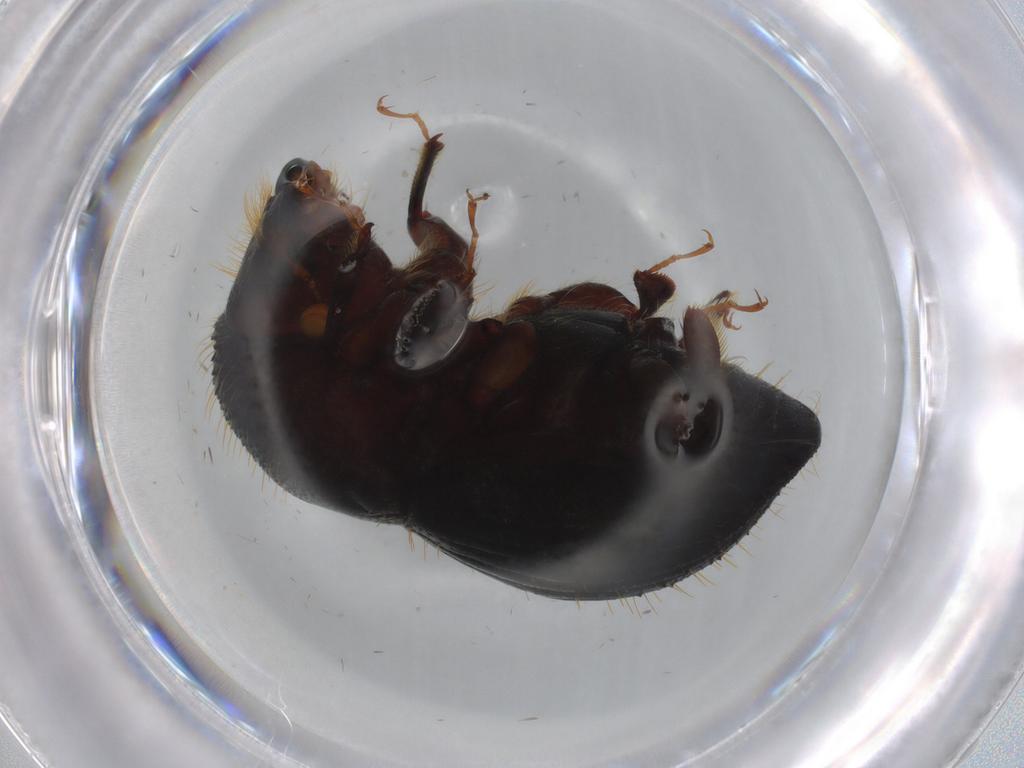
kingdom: Animalia
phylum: Arthropoda
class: Insecta
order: Coleoptera
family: Curculionidae
